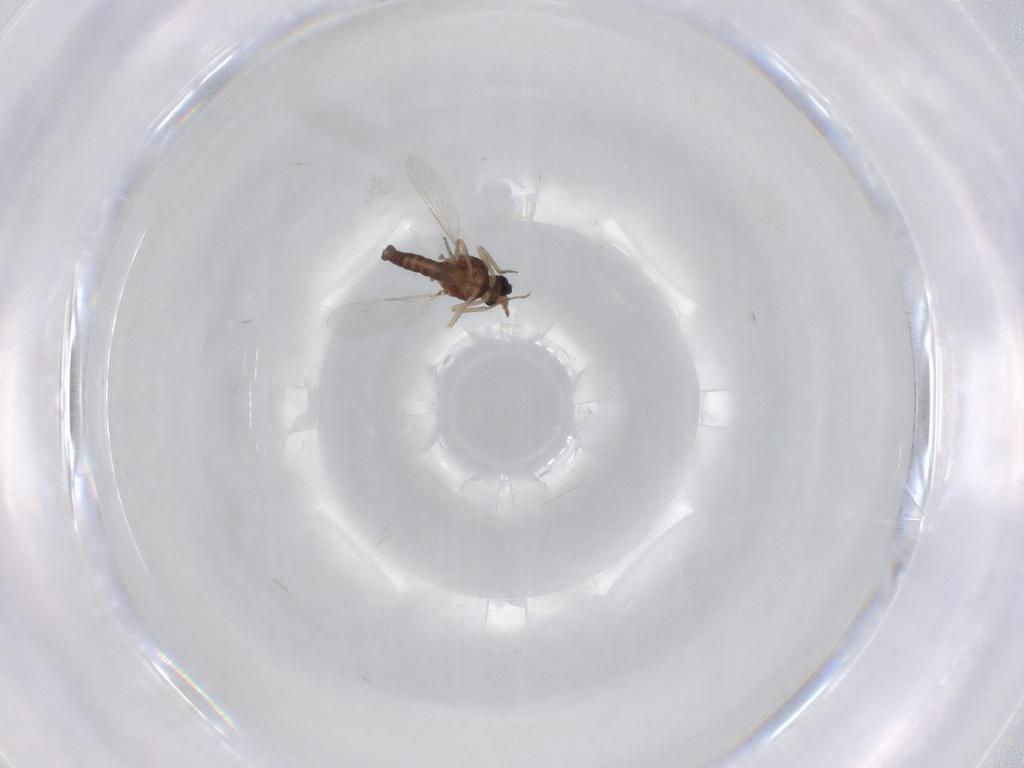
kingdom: Animalia
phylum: Arthropoda
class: Insecta
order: Diptera
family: Ceratopogonidae
